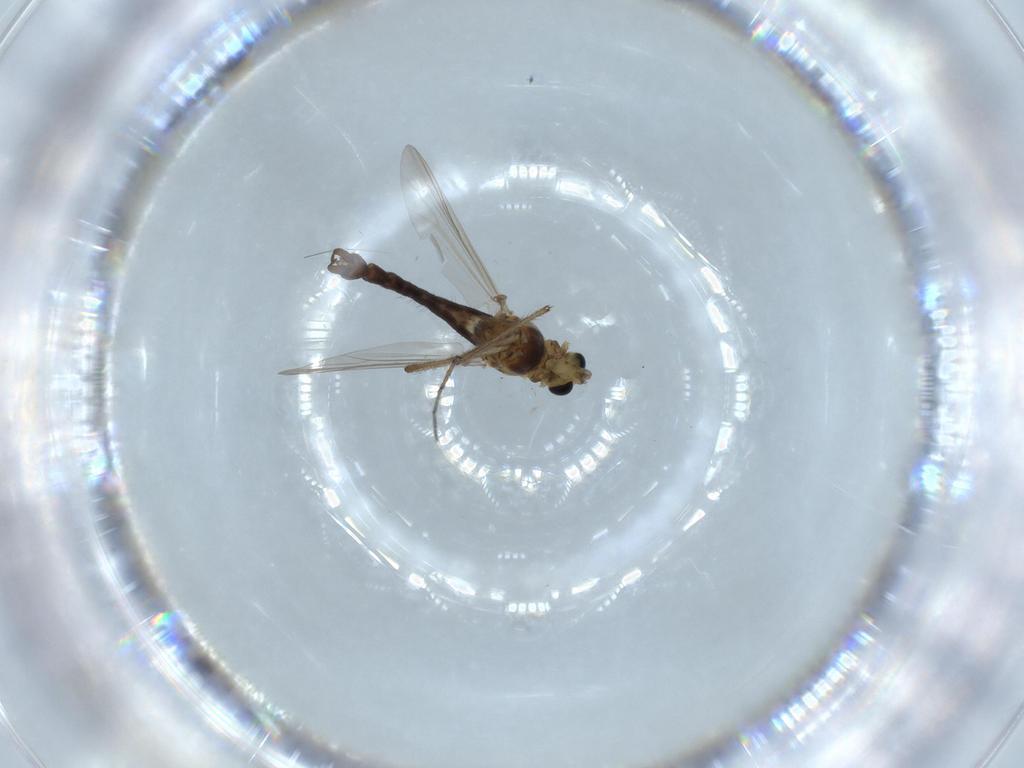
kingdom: Animalia
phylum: Arthropoda
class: Insecta
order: Diptera
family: Chironomidae
